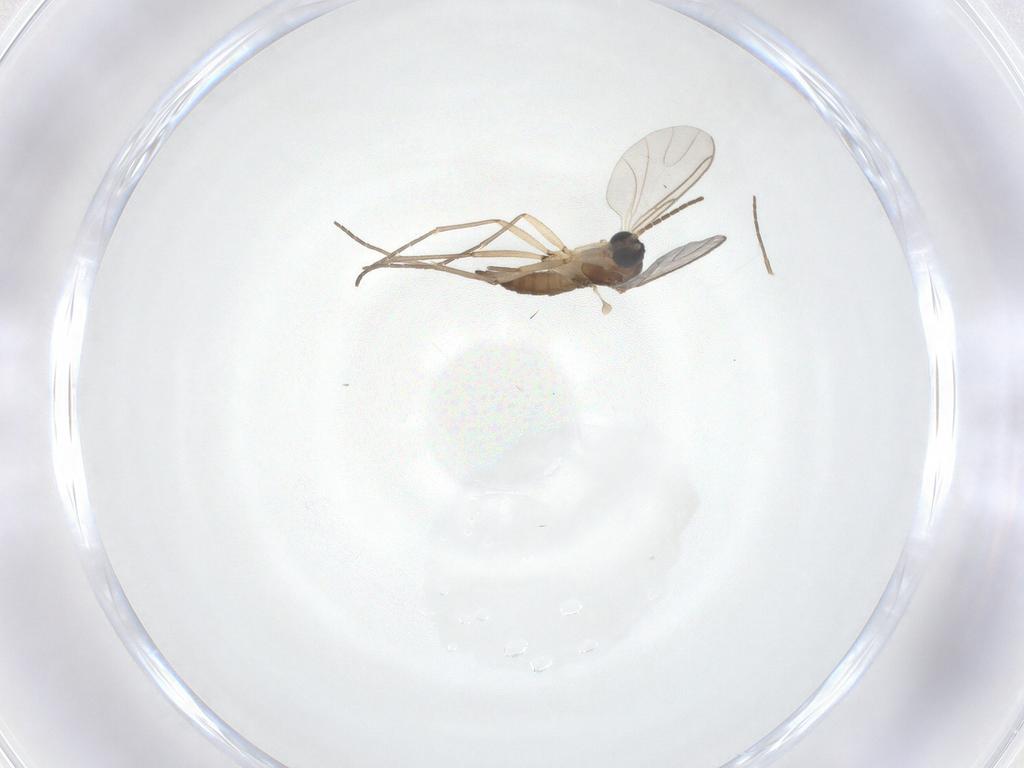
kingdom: Animalia
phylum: Arthropoda
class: Insecta
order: Diptera
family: Sciaridae
